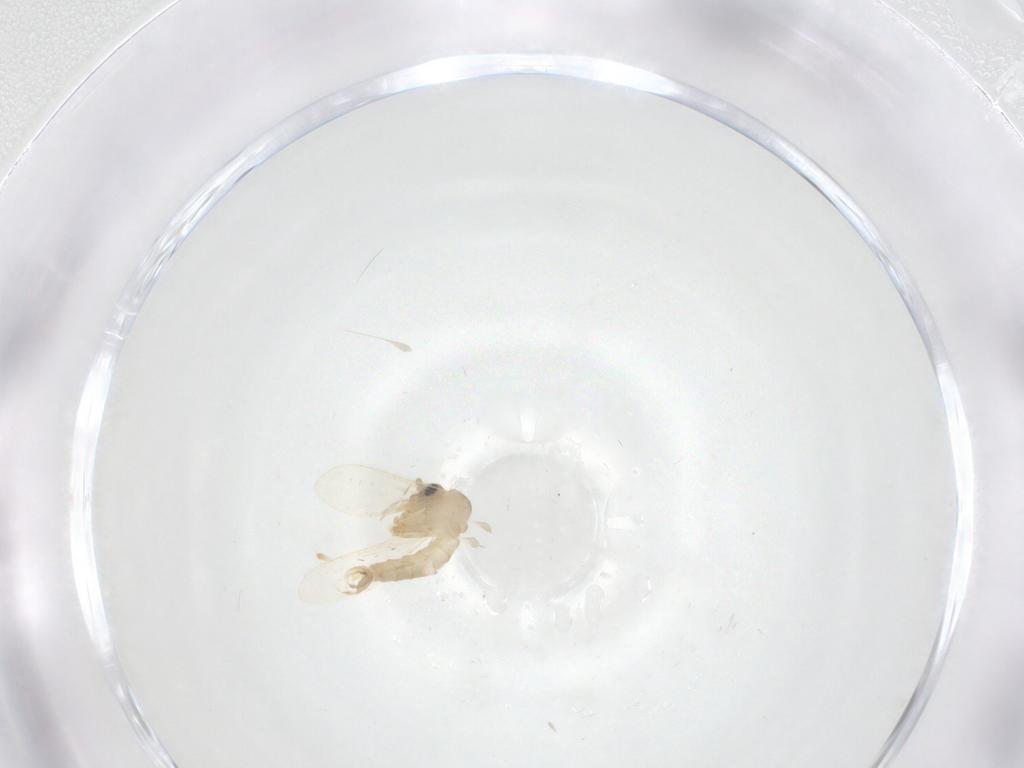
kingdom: Animalia
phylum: Arthropoda
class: Insecta
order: Diptera
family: Psychodidae
